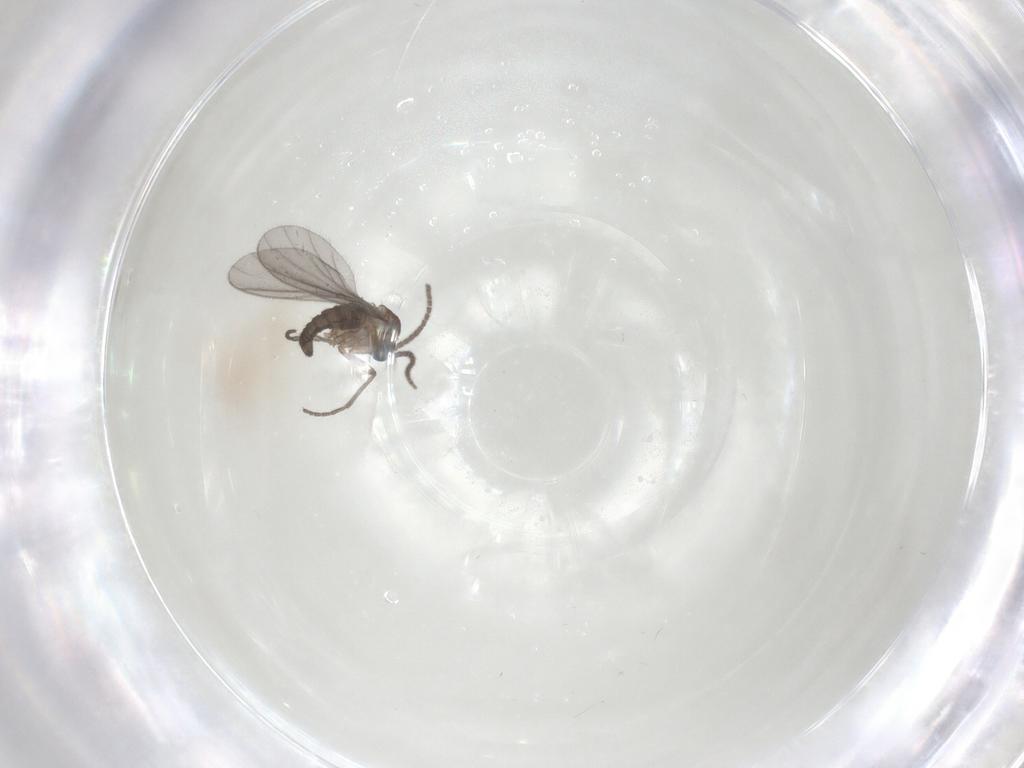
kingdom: Animalia
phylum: Arthropoda
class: Insecta
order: Diptera
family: Sciaridae
